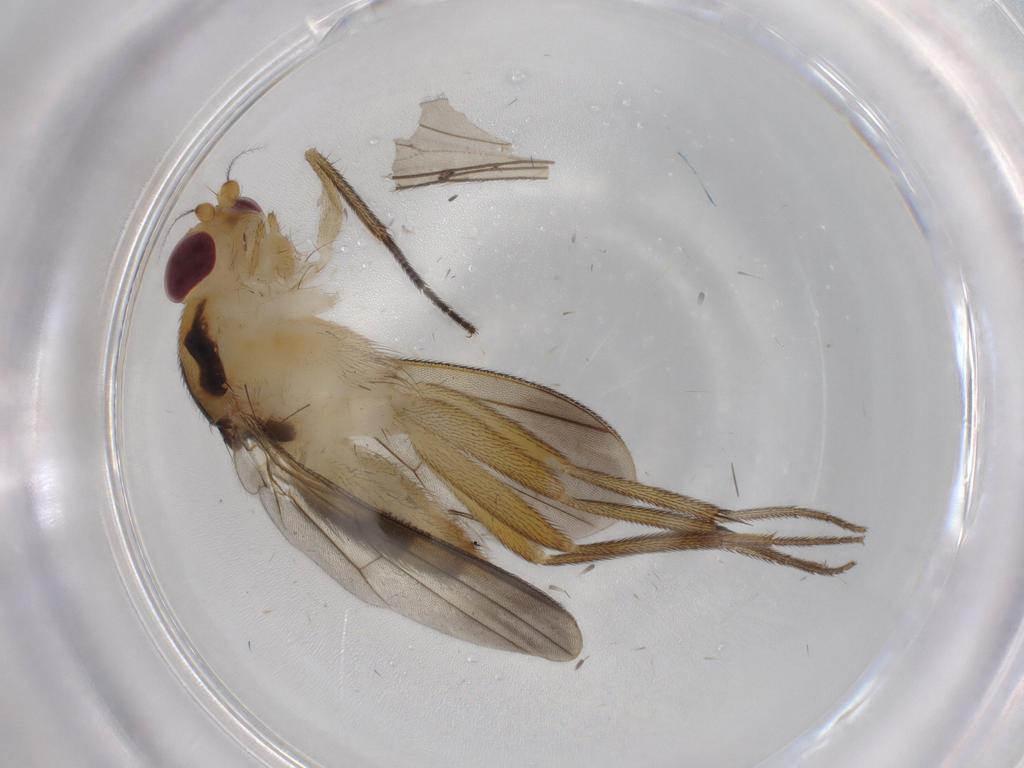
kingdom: Animalia
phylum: Arthropoda
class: Insecta
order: Diptera
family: Clusiidae
